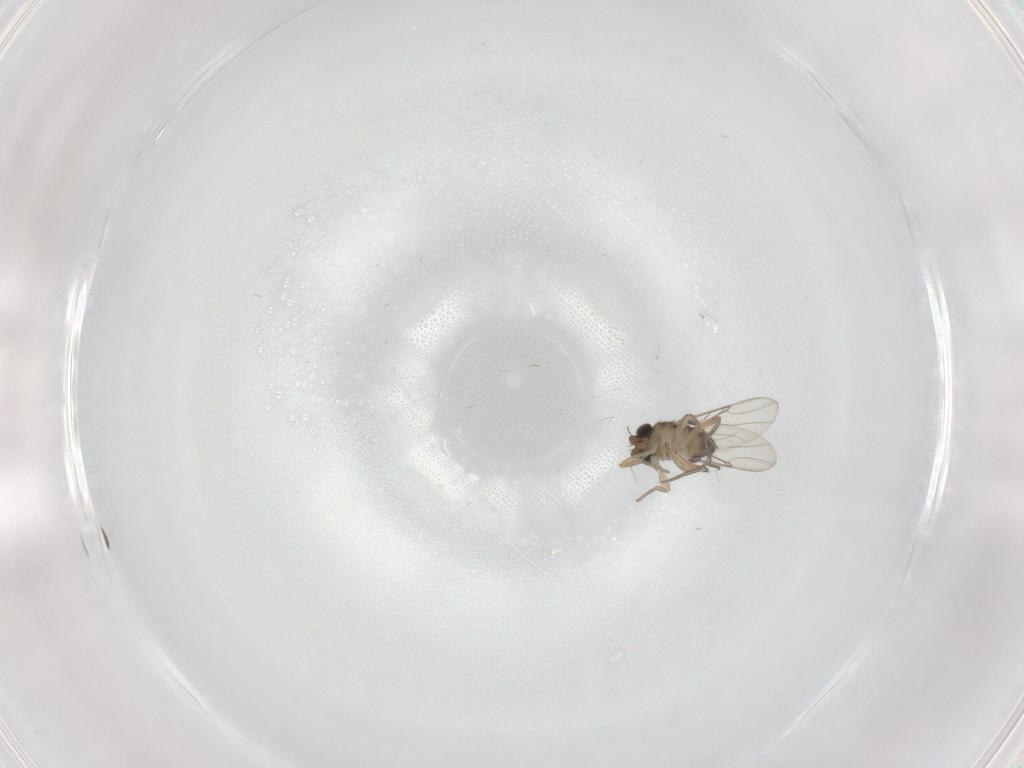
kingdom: Animalia
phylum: Arthropoda
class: Insecta
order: Diptera
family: Phoridae
